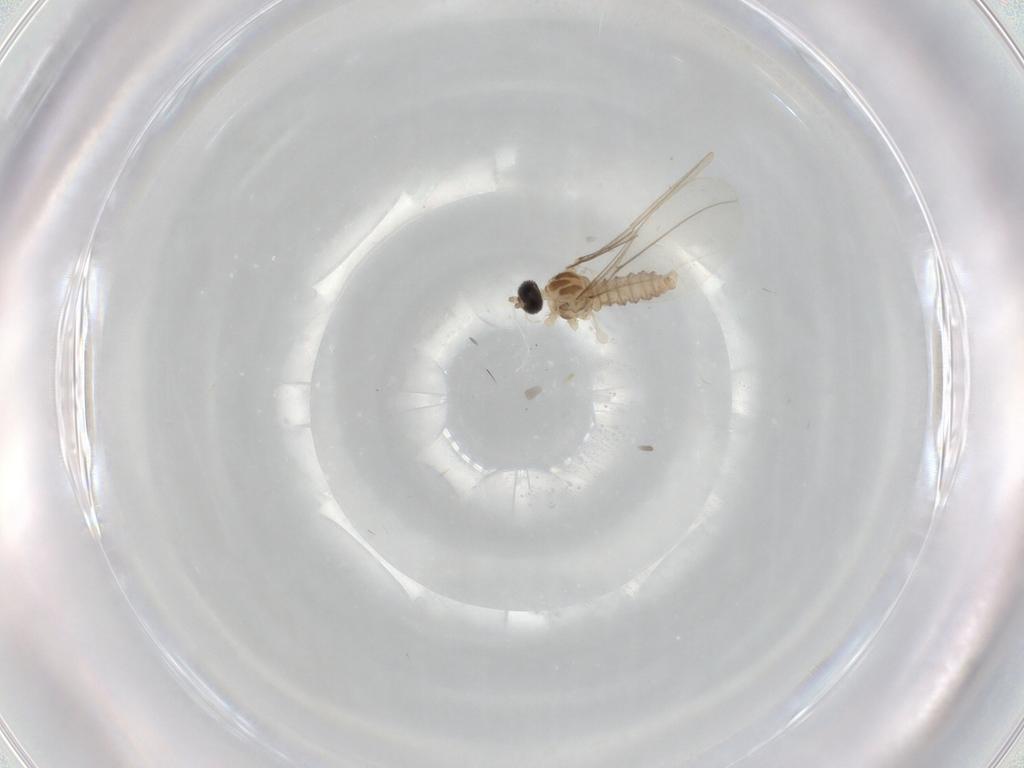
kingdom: Animalia
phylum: Arthropoda
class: Insecta
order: Diptera
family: Cecidomyiidae
